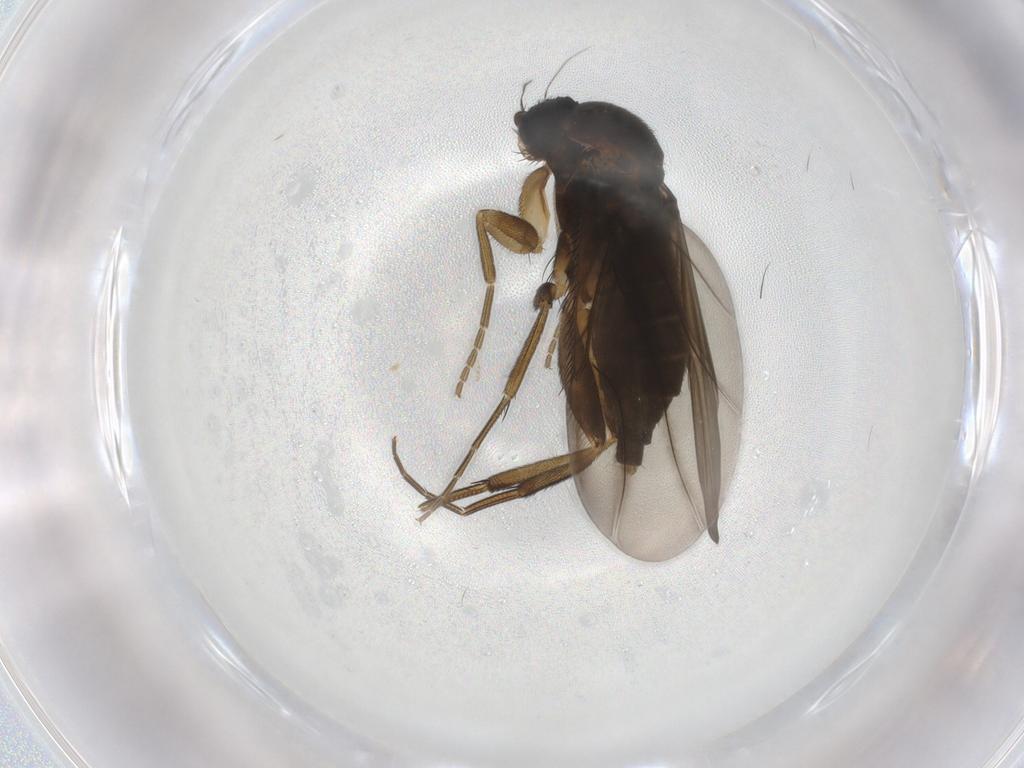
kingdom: Animalia
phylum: Arthropoda
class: Insecta
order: Diptera
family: Phoridae
